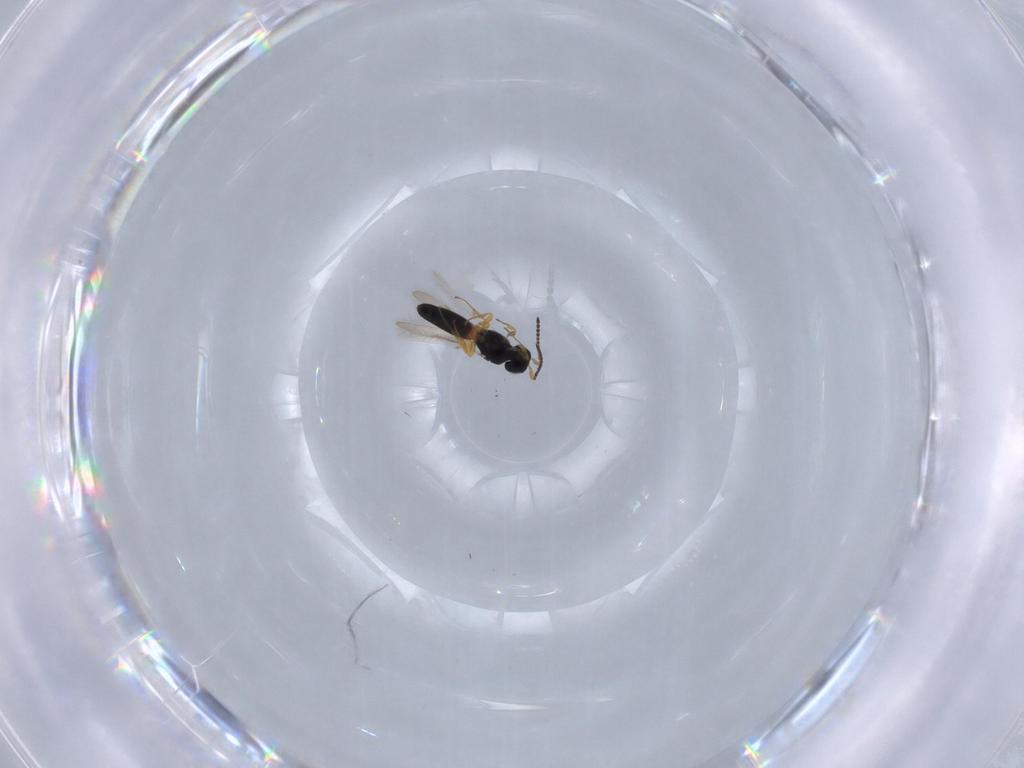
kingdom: Animalia
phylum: Arthropoda
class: Insecta
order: Hymenoptera
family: Scelionidae
